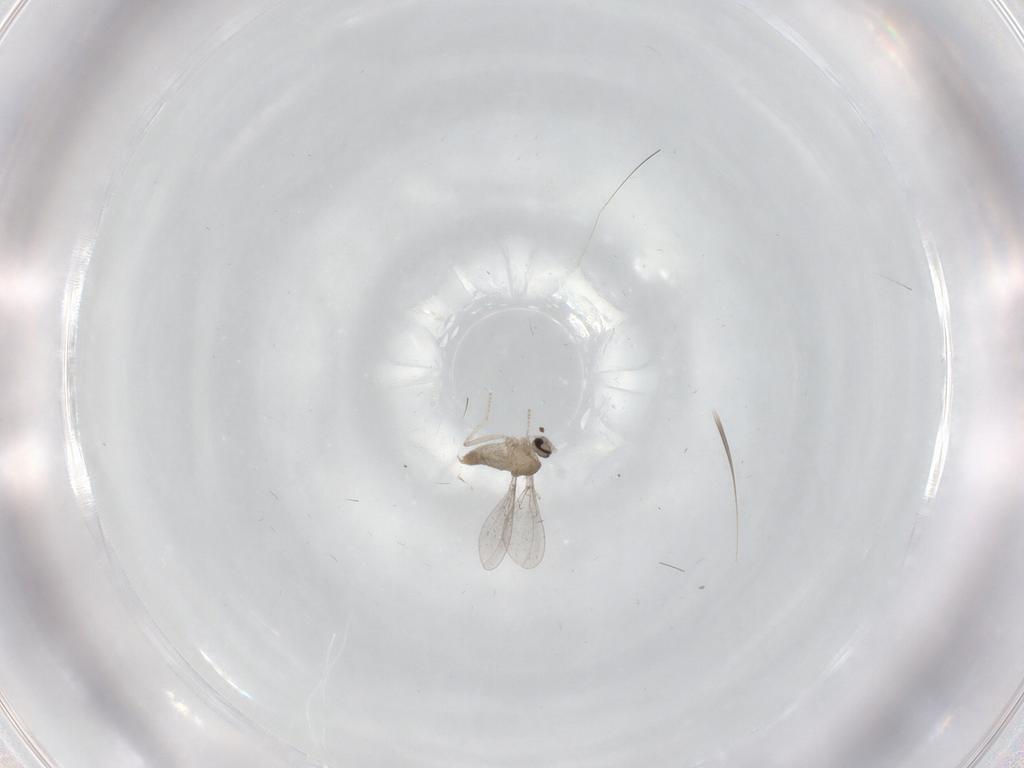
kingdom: Animalia
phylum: Arthropoda
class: Insecta
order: Diptera
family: Cecidomyiidae
